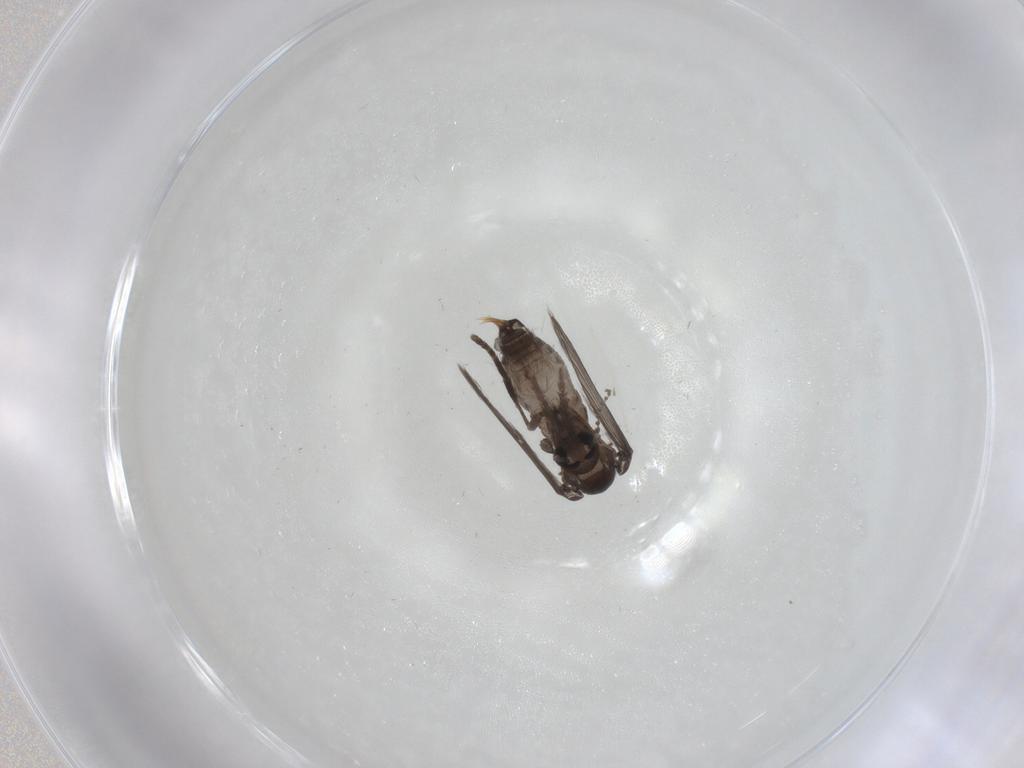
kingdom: Animalia
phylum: Arthropoda
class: Insecta
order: Diptera
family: Psychodidae
